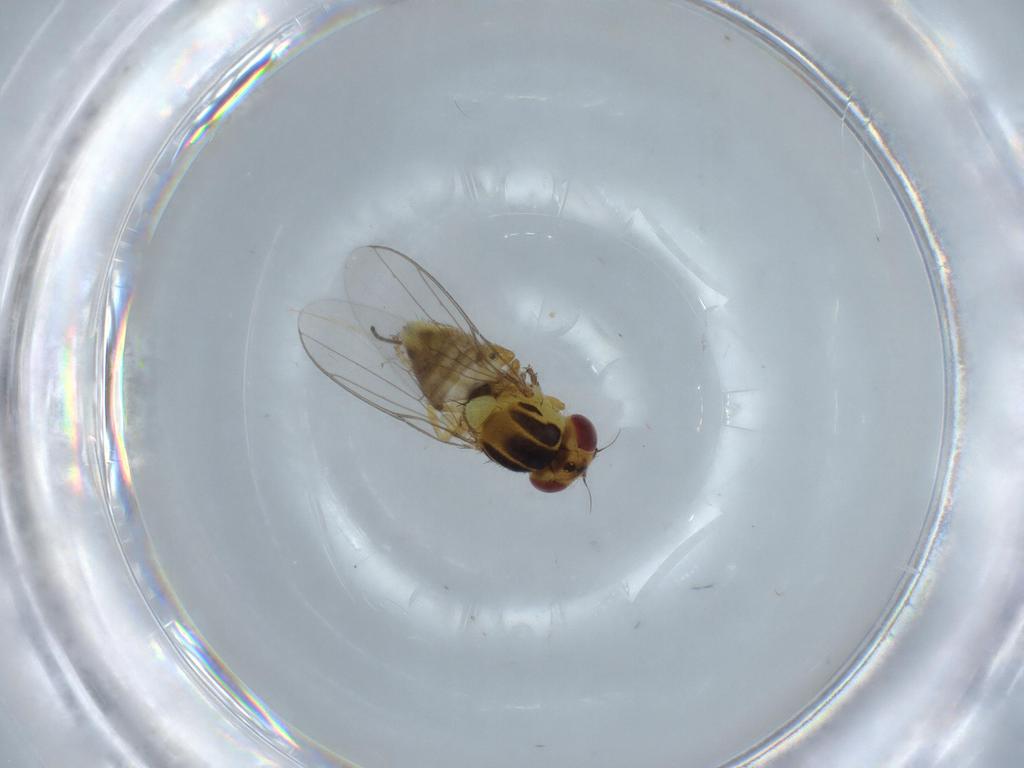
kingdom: Animalia
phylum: Arthropoda
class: Insecta
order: Diptera
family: Chloropidae
